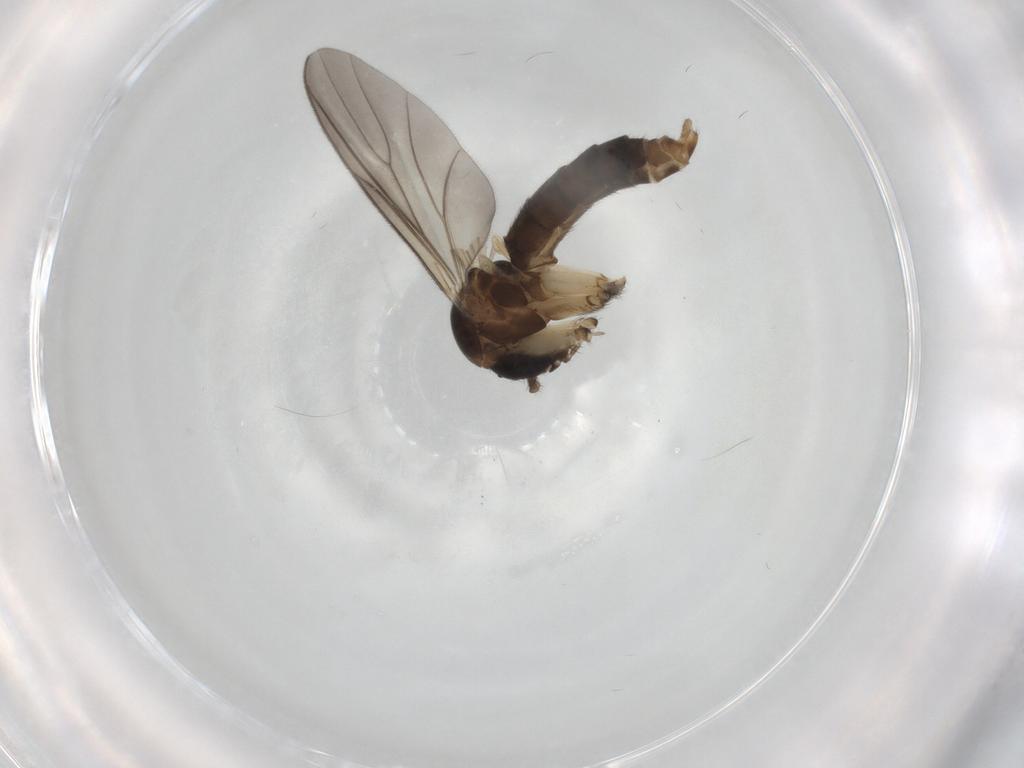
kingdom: Animalia
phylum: Arthropoda
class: Insecta
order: Diptera
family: Mycetophilidae
